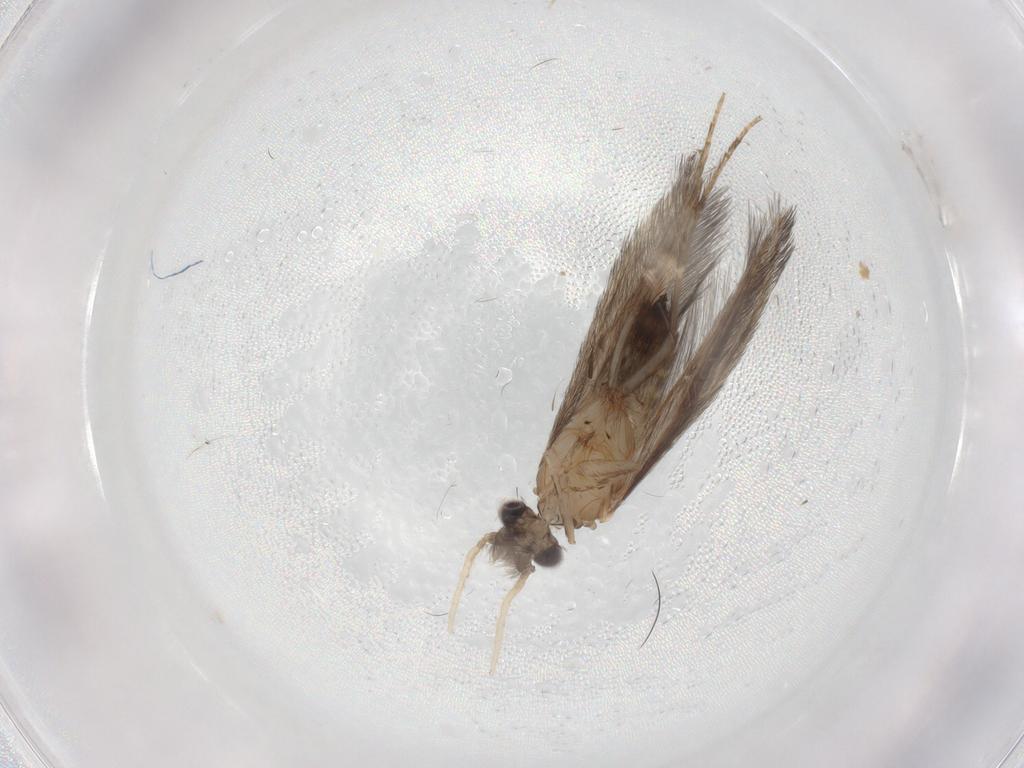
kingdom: Animalia
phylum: Arthropoda
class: Insecta
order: Trichoptera
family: Hydroptilidae
